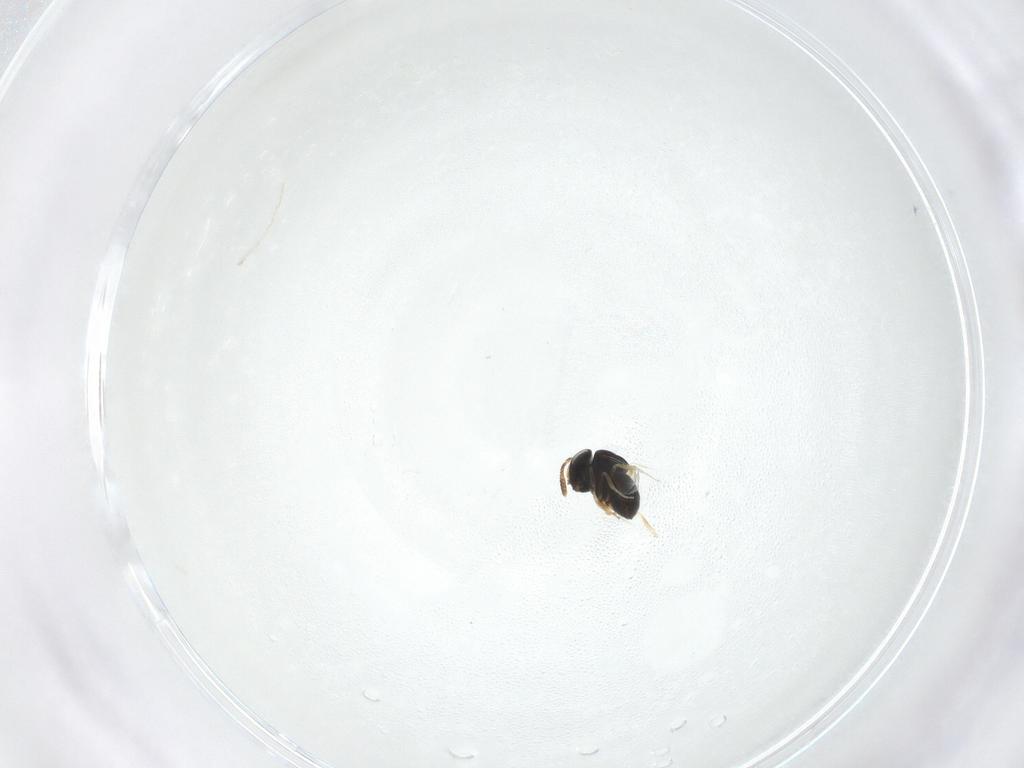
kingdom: Animalia
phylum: Arthropoda
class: Insecta
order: Hymenoptera
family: Scelionidae
